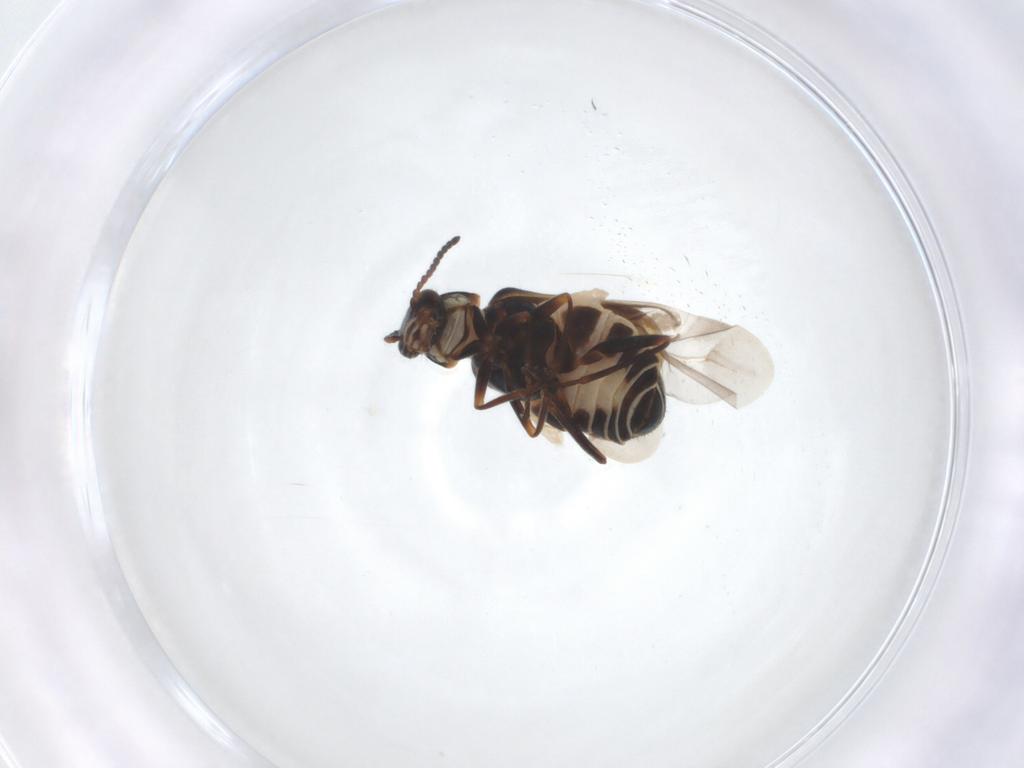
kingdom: Animalia
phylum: Arthropoda
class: Insecta
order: Coleoptera
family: Melyridae
